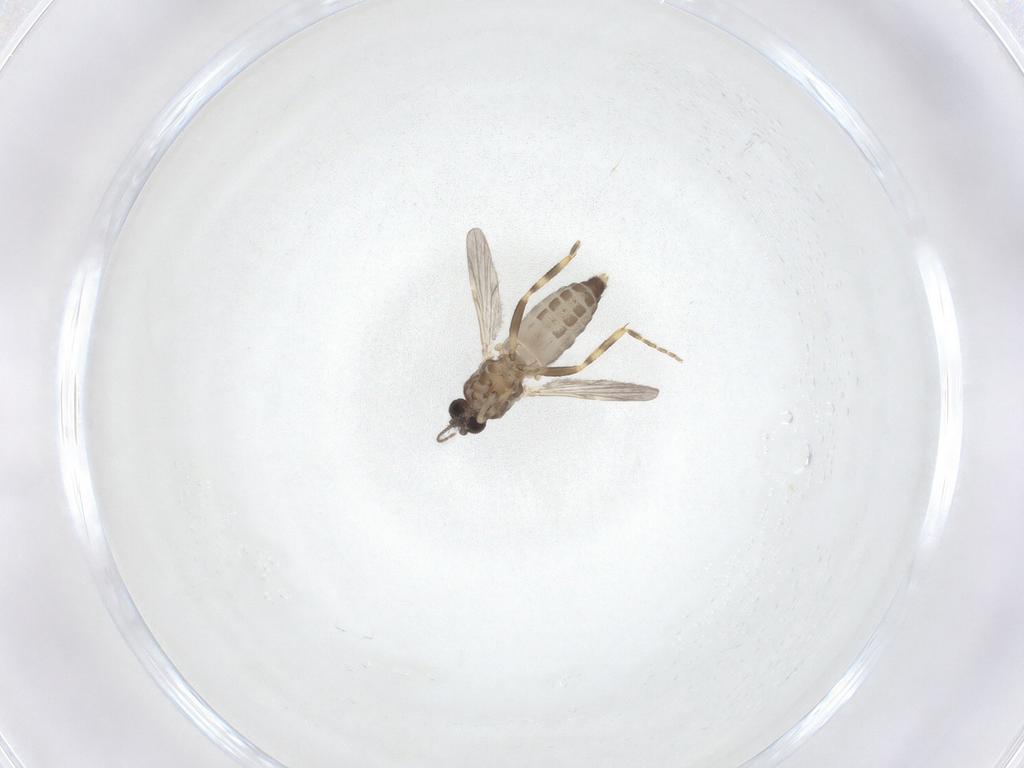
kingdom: Animalia
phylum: Arthropoda
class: Insecta
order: Diptera
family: Ceratopogonidae
